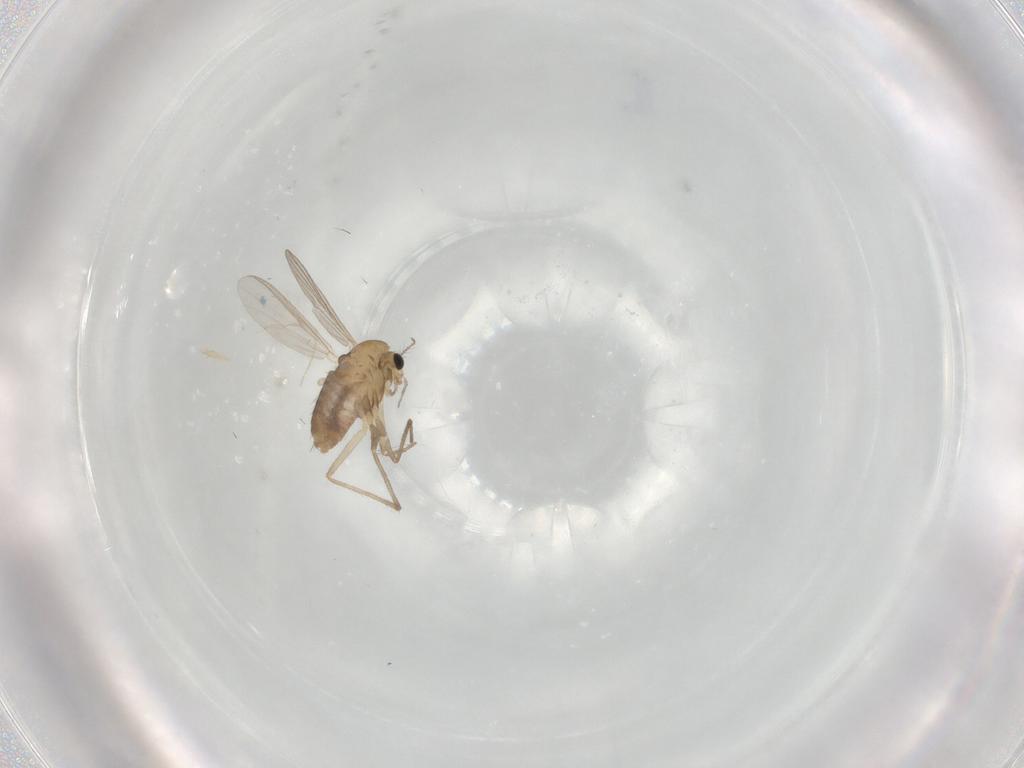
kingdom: Animalia
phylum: Arthropoda
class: Insecta
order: Diptera
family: Chironomidae
